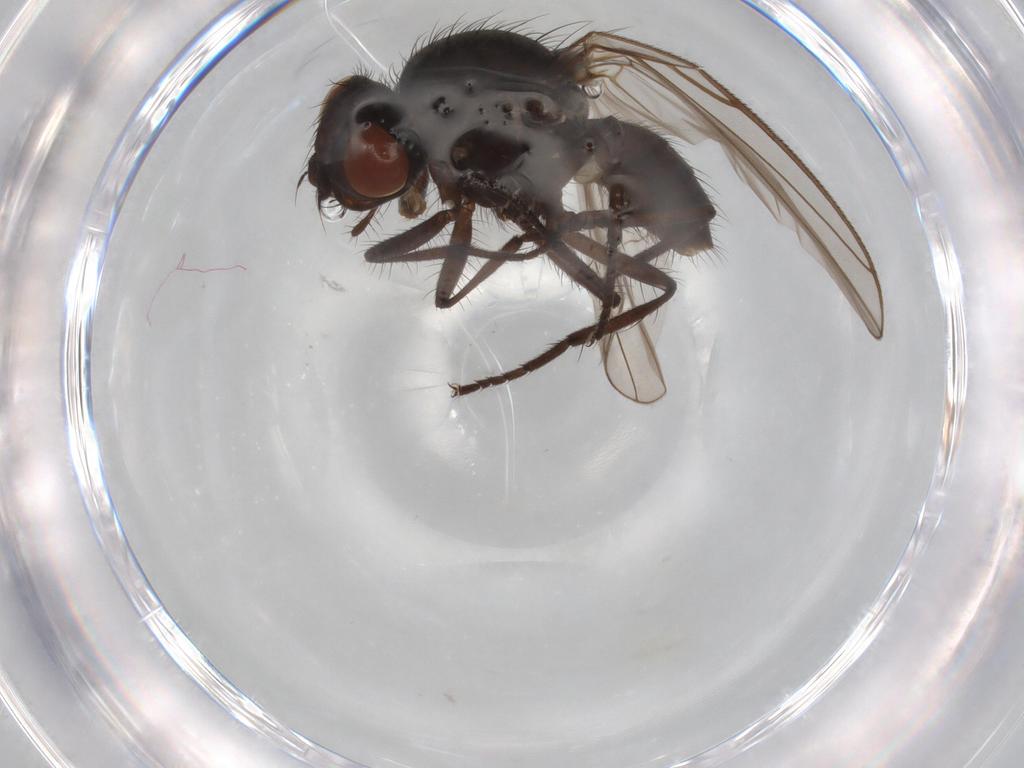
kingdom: Animalia
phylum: Arthropoda
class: Insecta
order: Diptera
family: Anthomyiidae
